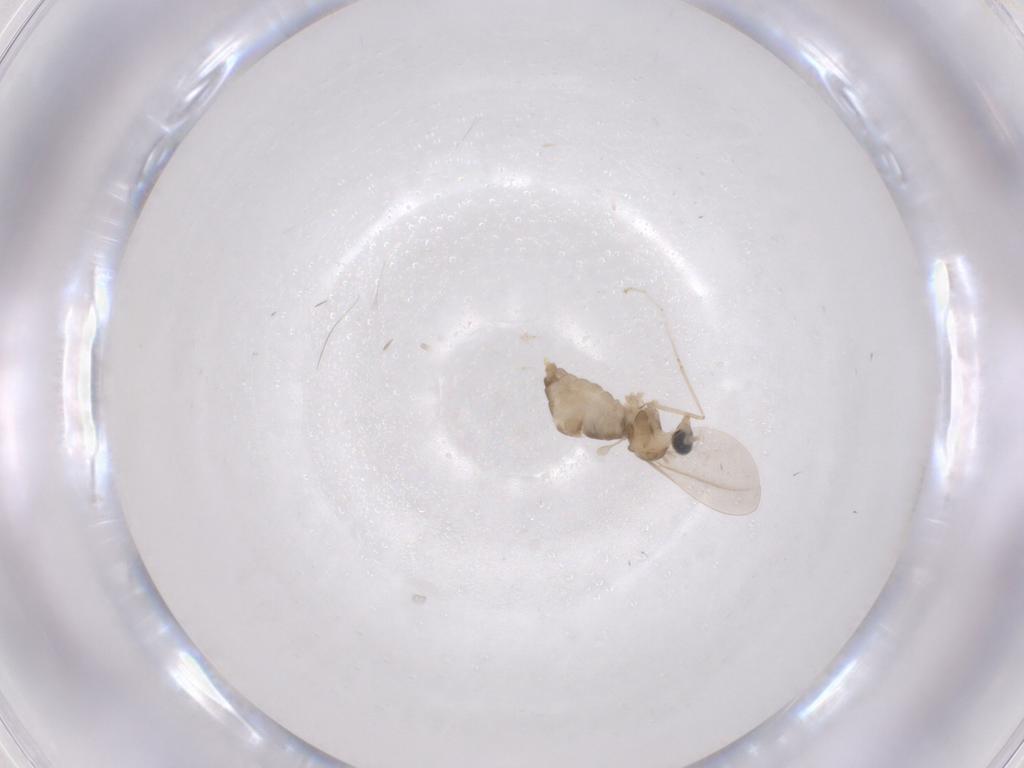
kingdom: Animalia
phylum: Arthropoda
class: Insecta
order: Diptera
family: Cecidomyiidae
